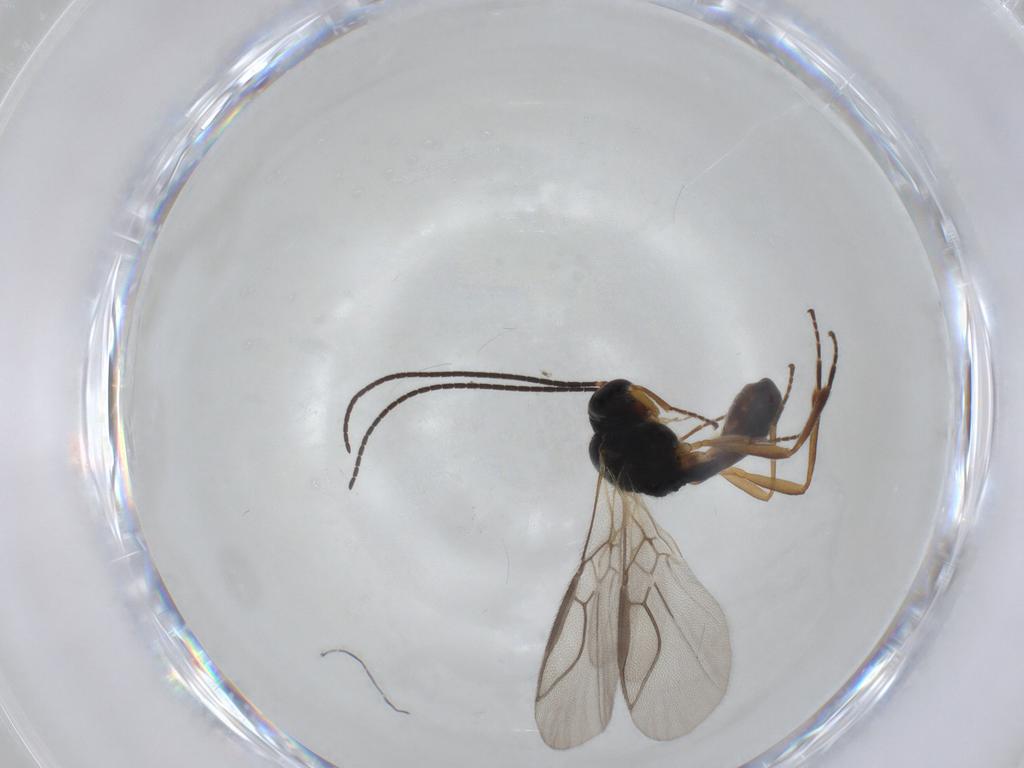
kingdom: Animalia
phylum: Arthropoda
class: Insecta
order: Hymenoptera
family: Braconidae
